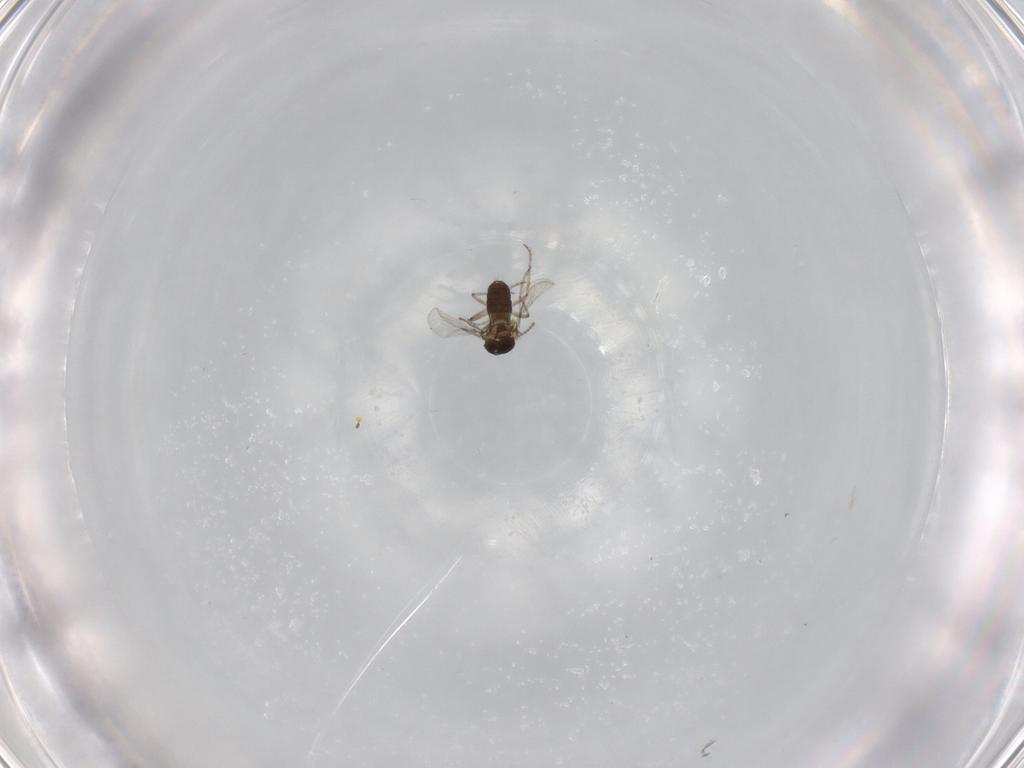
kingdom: Animalia
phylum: Arthropoda
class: Insecta
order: Diptera
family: Ceratopogonidae
